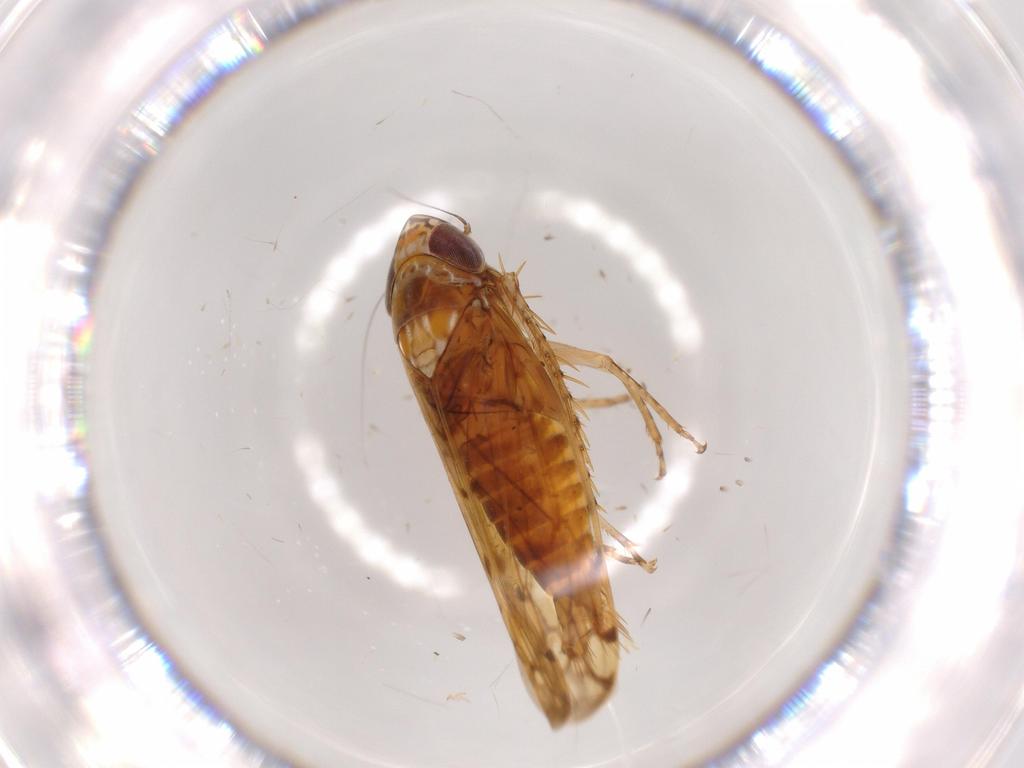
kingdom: Animalia
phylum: Arthropoda
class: Insecta
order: Hemiptera
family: Cicadellidae
